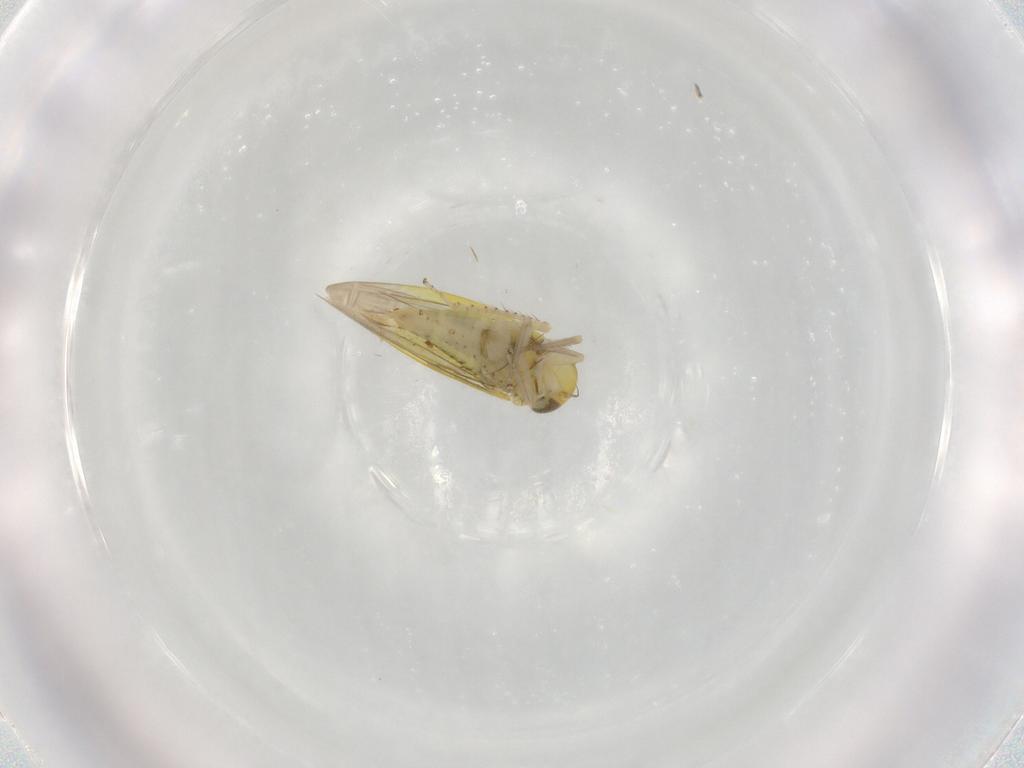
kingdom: Animalia
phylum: Arthropoda
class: Insecta
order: Hemiptera
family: Cicadellidae
